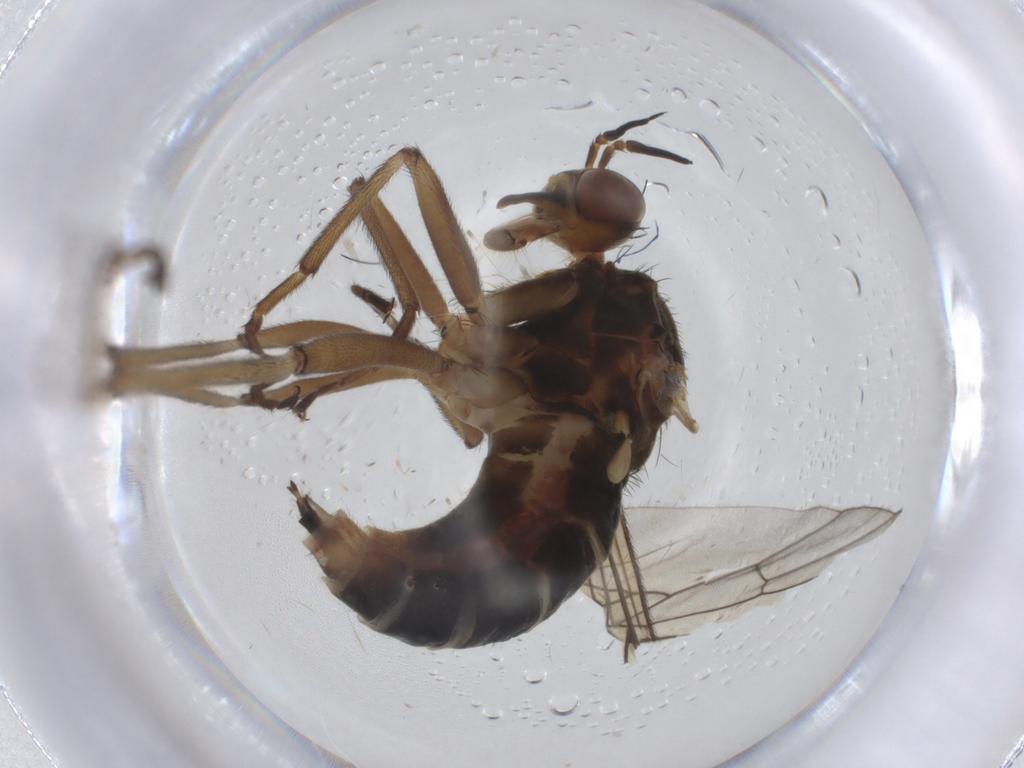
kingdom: Animalia
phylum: Arthropoda
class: Insecta
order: Diptera
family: Empididae
